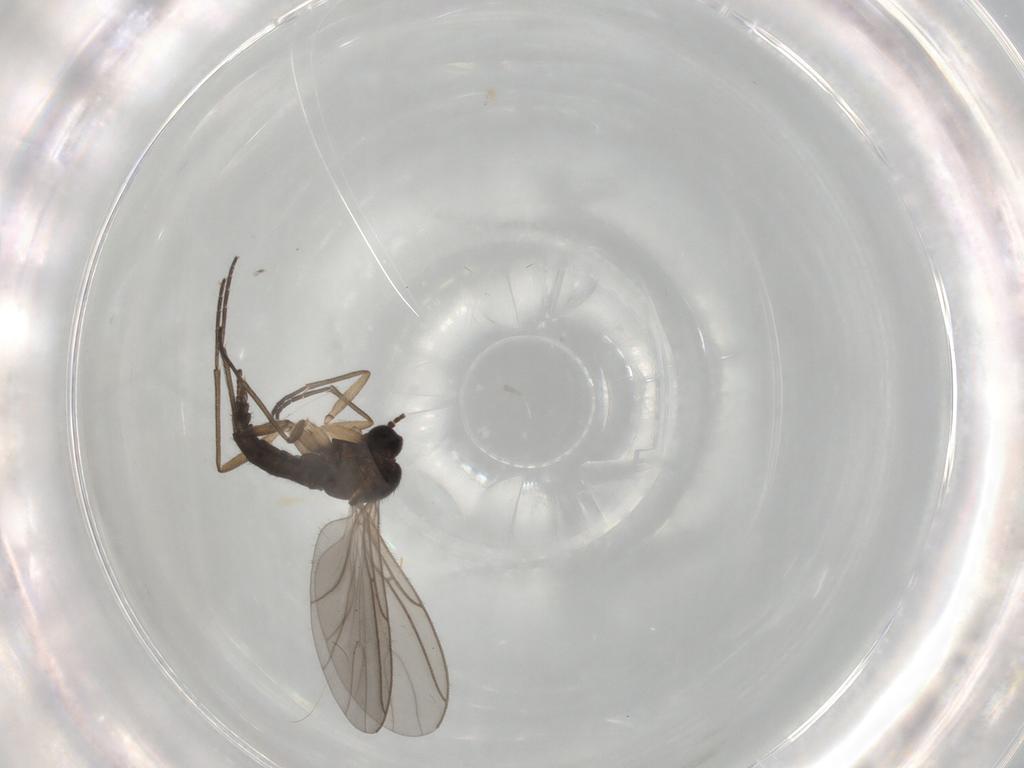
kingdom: Animalia
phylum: Arthropoda
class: Insecta
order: Diptera
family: Sciaridae
